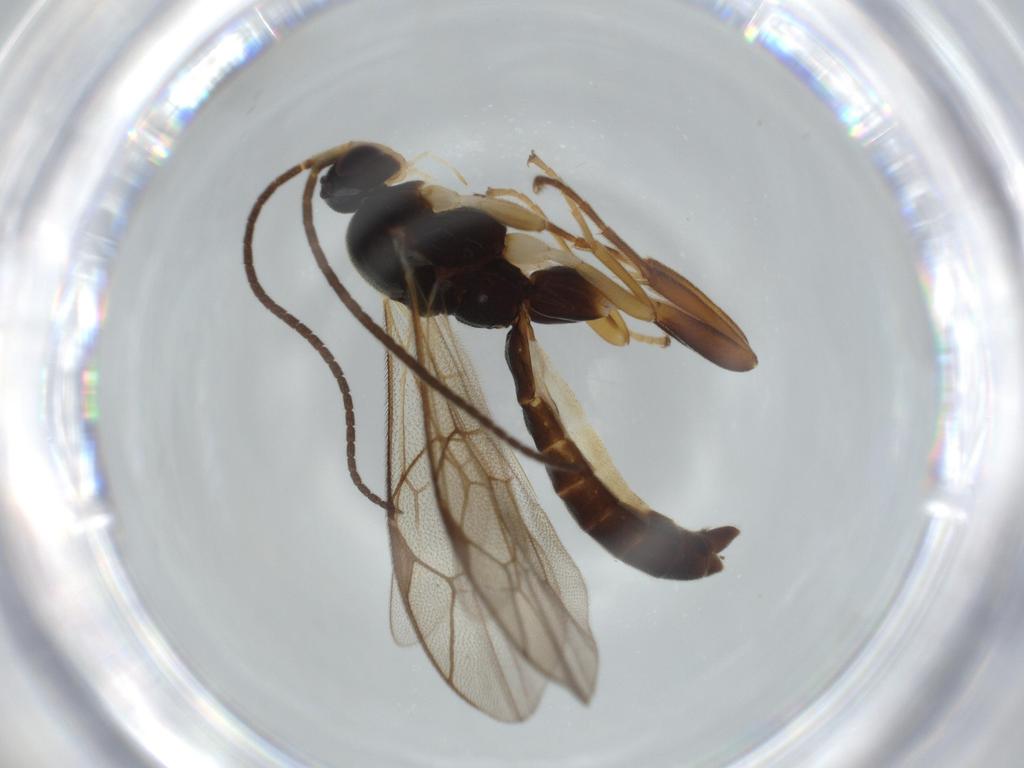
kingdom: Animalia
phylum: Arthropoda
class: Insecta
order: Hymenoptera
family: Ichneumonidae
